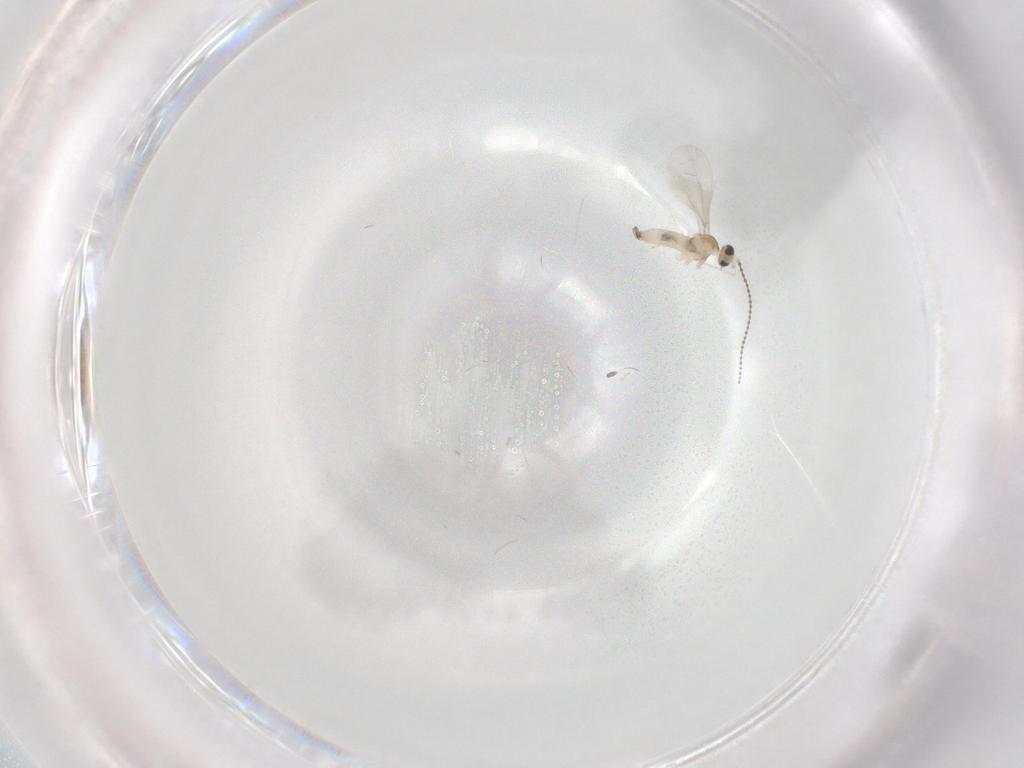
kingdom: Animalia
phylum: Arthropoda
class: Insecta
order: Diptera
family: Cecidomyiidae
